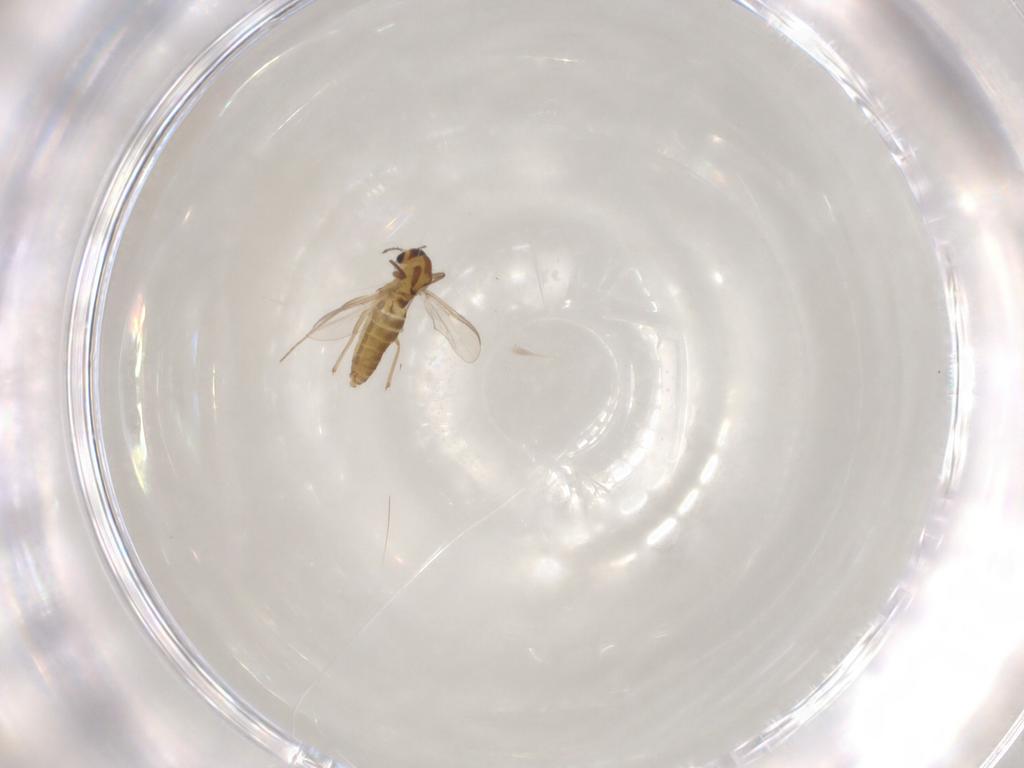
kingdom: Animalia
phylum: Arthropoda
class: Insecta
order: Diptera
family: Chironomidae
